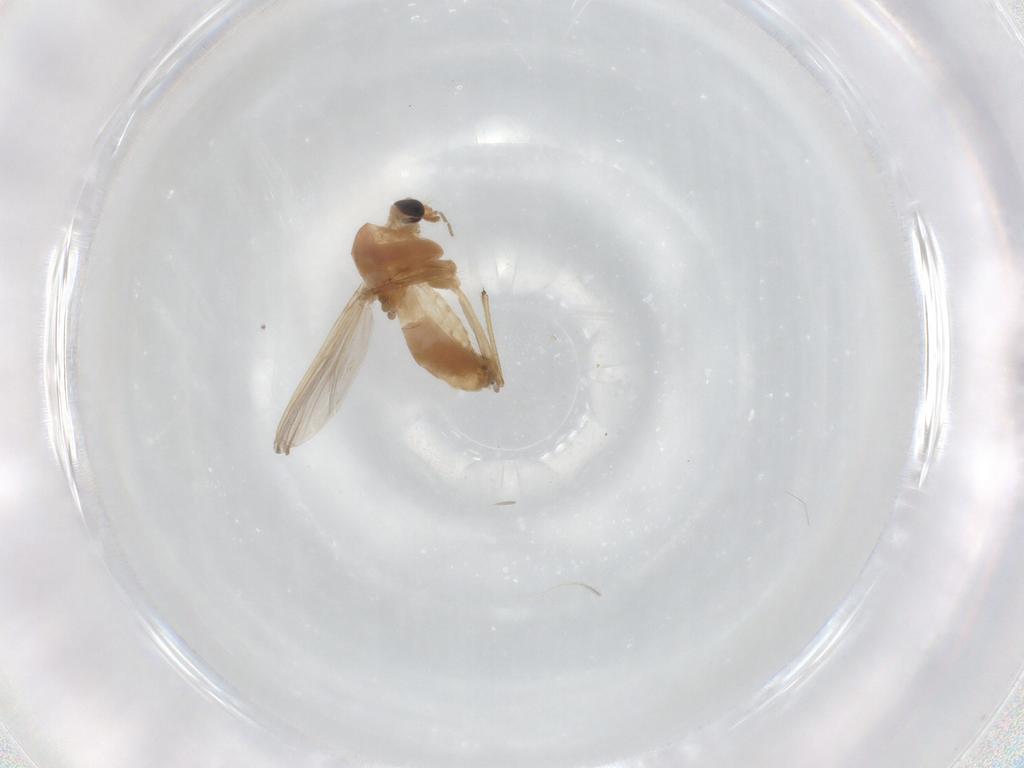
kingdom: Animalia
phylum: Arthropoda
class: Insecta
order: Diptera
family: Chironomidae
